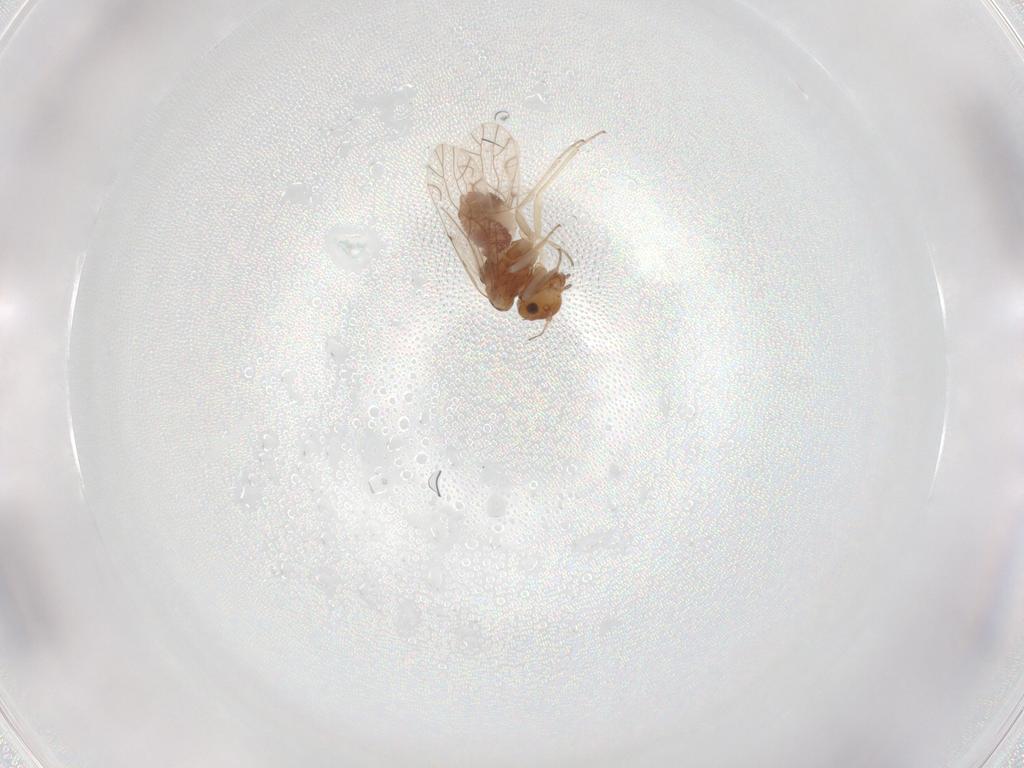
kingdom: Animalia
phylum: Arthropoda
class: Insecta
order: Psocodea
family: Lachesillidae
